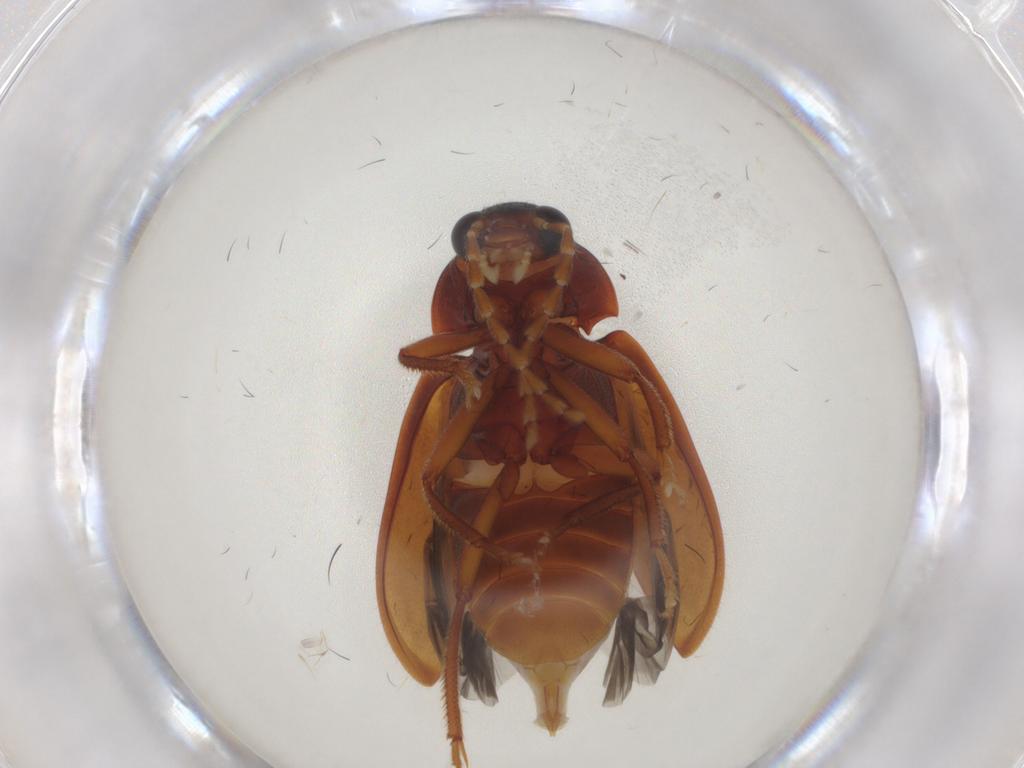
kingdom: Animalia
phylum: Arthropoda
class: Insecta
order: Coleoptera
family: Ptilodactylidae
